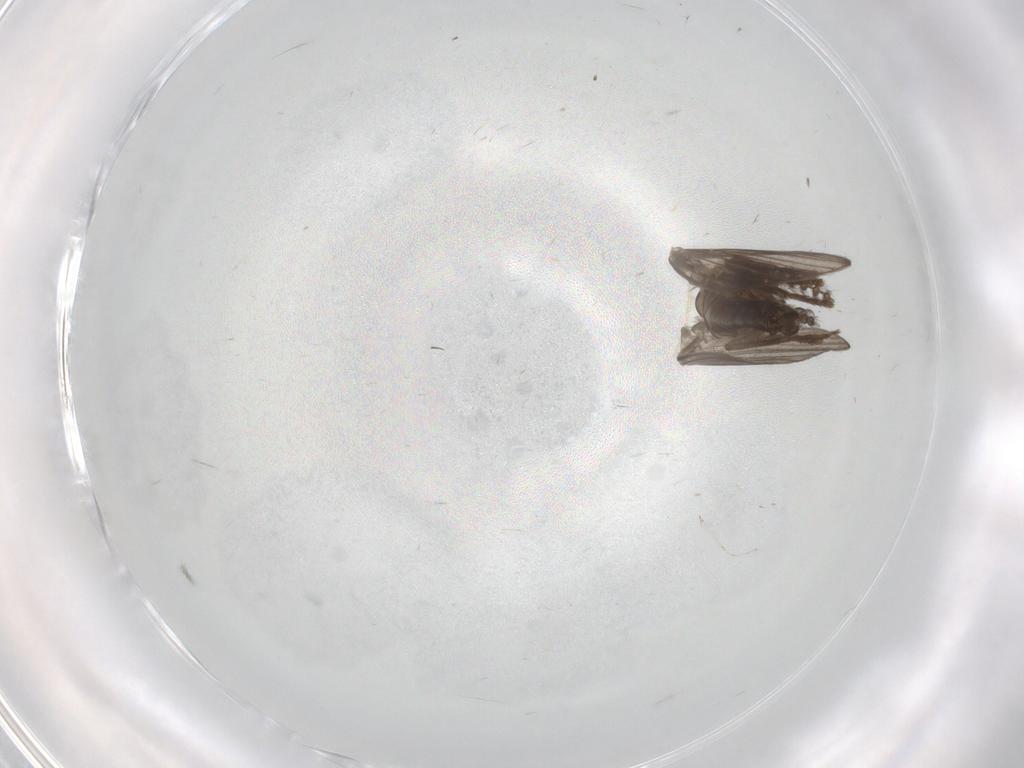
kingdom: Animalia
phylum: Arthropoda
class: Insecta
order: Diptera
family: Psychodidae
